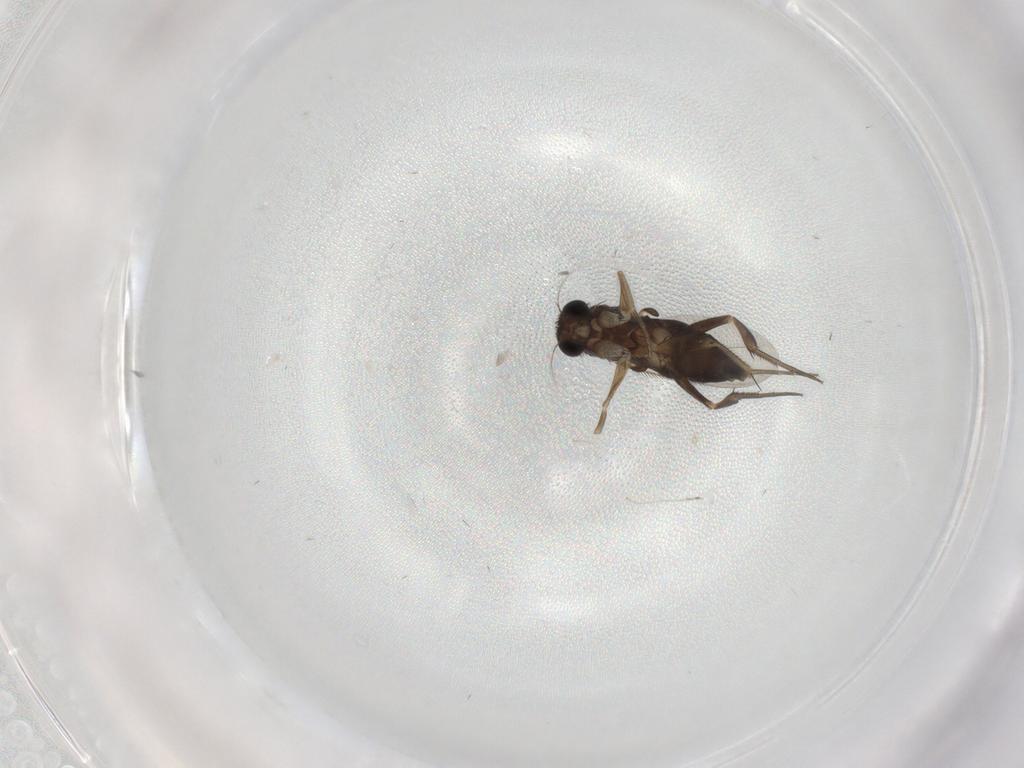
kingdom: Animalia
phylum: Arthropoda
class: Insecta
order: Diptera
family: Phoridae
